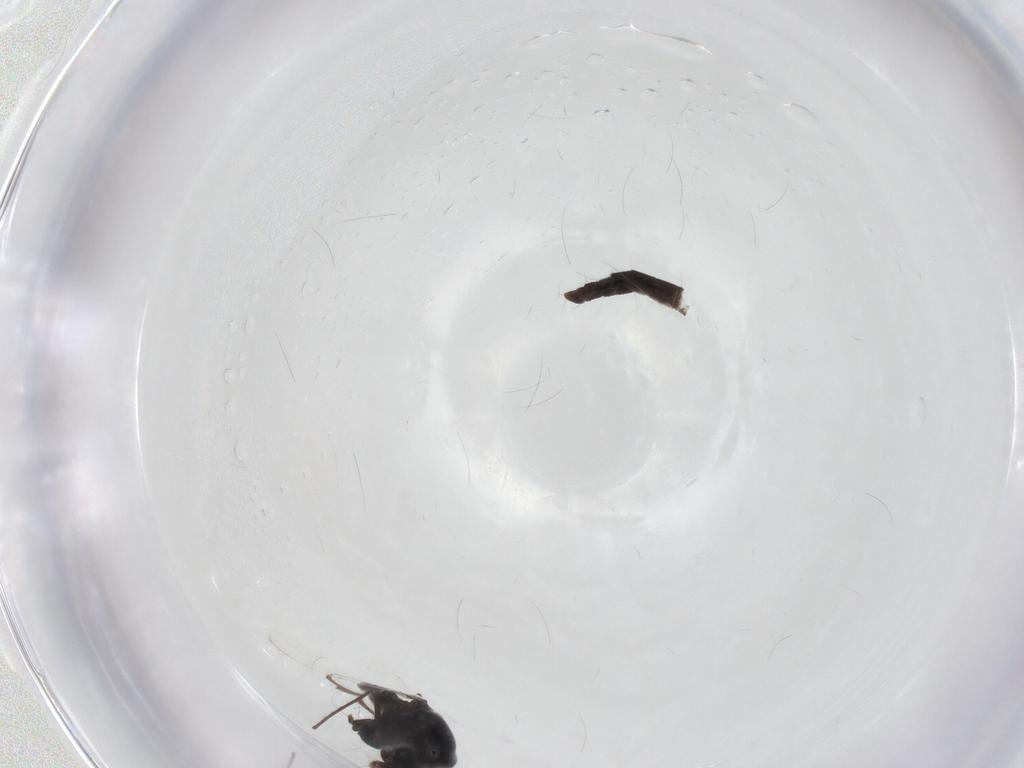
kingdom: Animalia
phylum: Arthropoda
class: Insecta
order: Diptera
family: Chironomidae
